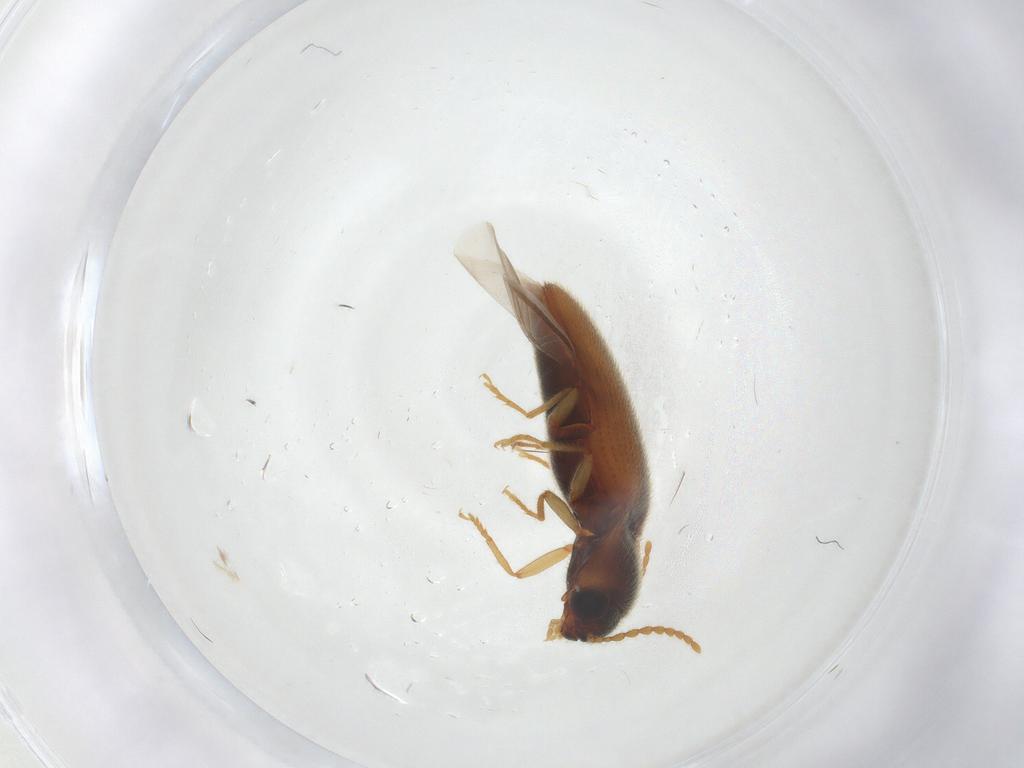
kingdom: Animalia
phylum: Arthropoda
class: Insecta
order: Coleoptera
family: Elateridae
